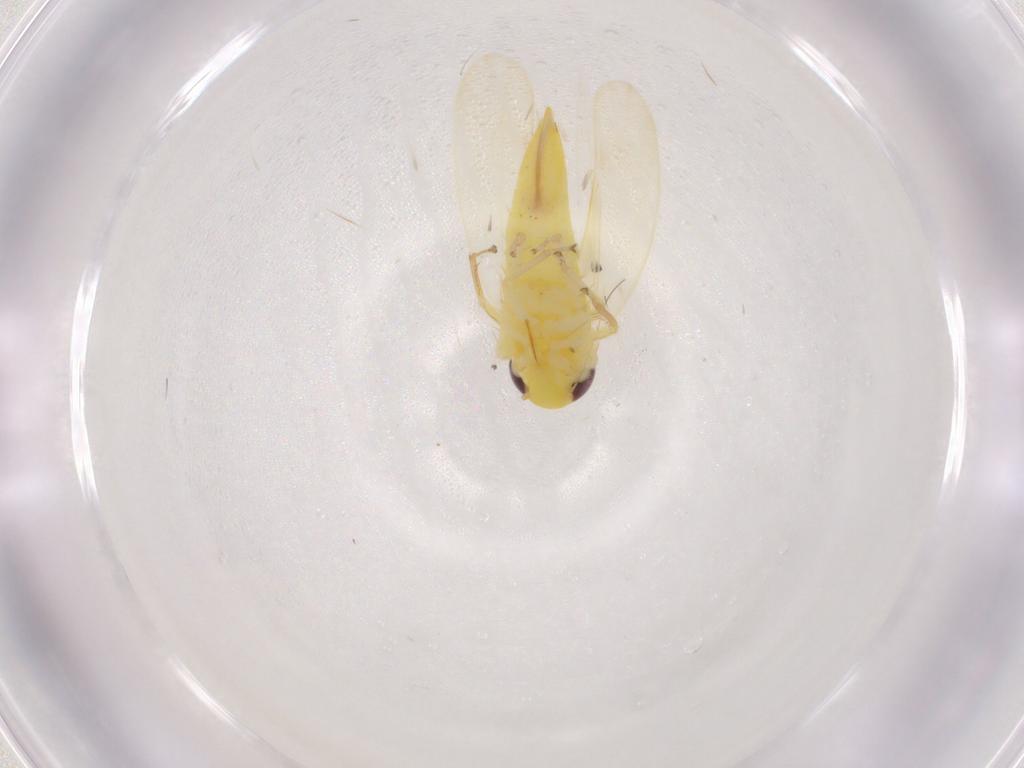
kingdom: Animalia
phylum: Arthropoda
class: Insecta
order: Hemiptera
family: Cicadellidae
